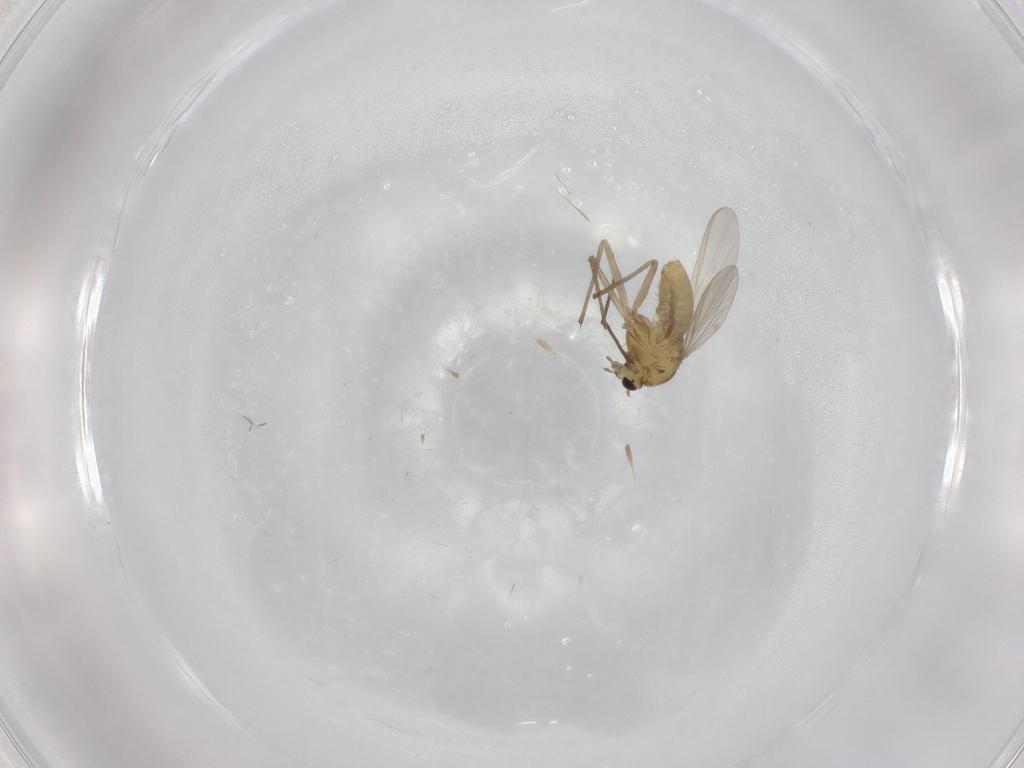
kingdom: Animalia
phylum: Arthropoda
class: Insecta
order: Diptera
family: Chironomidae
